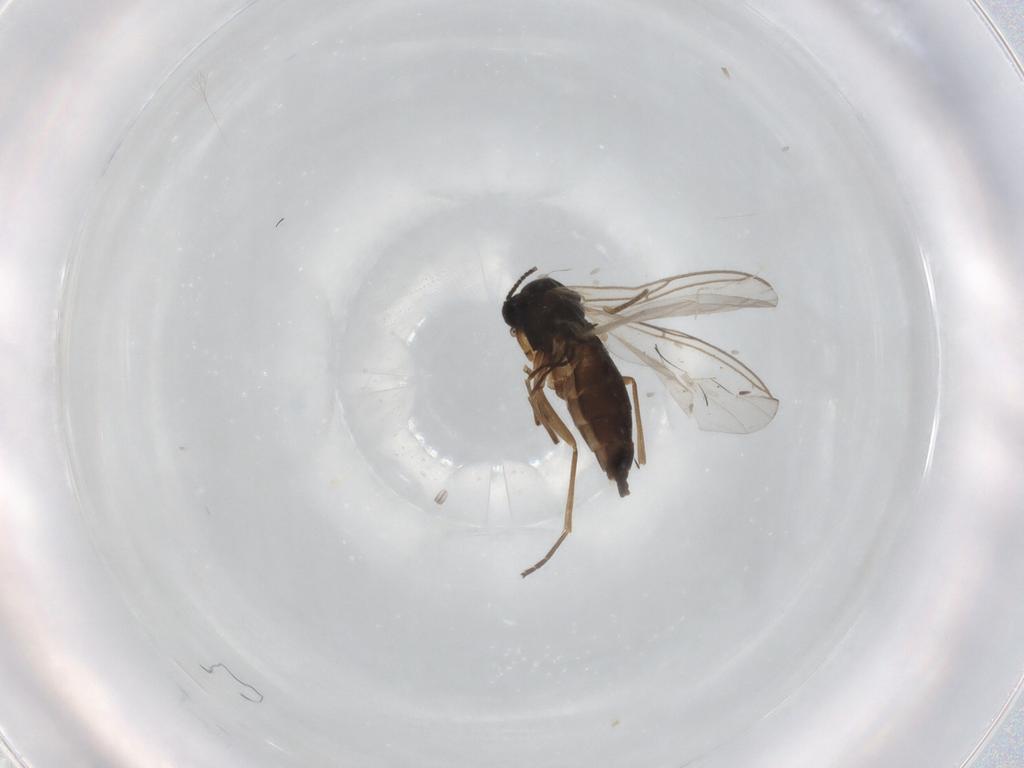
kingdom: Animalia
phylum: Arthropoda
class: Insecta
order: Diptera
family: Sciaridae
